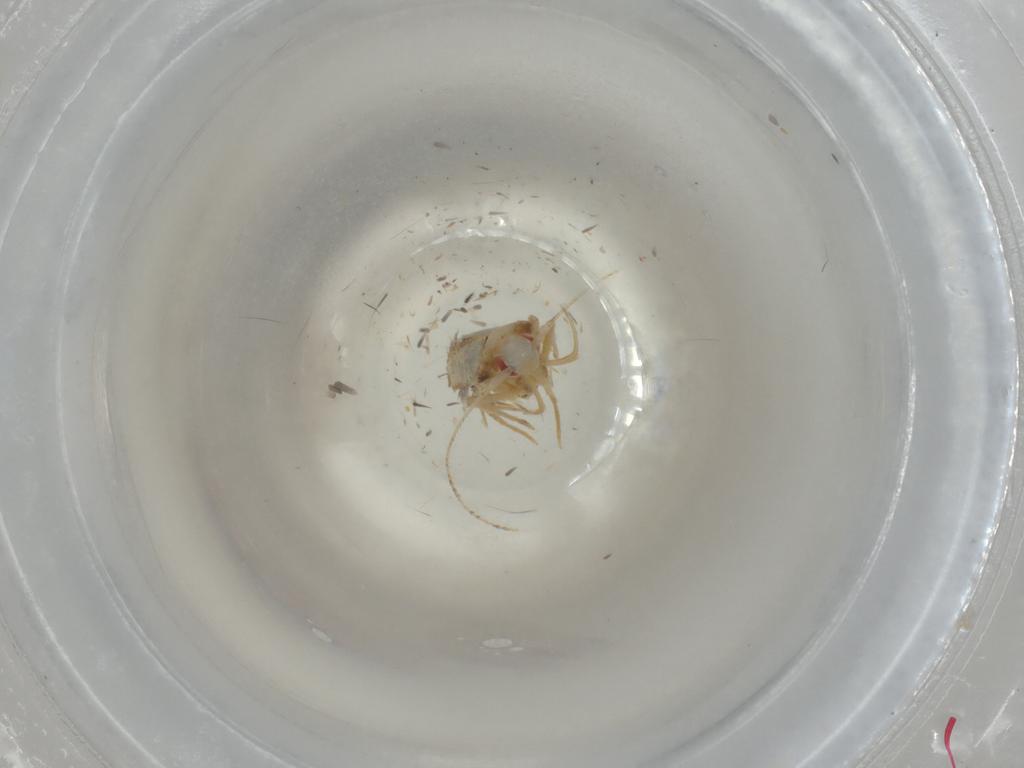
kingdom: Animalia
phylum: Arthropoda
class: Insecta
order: Lepidoptera
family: Cosmopterigidae
